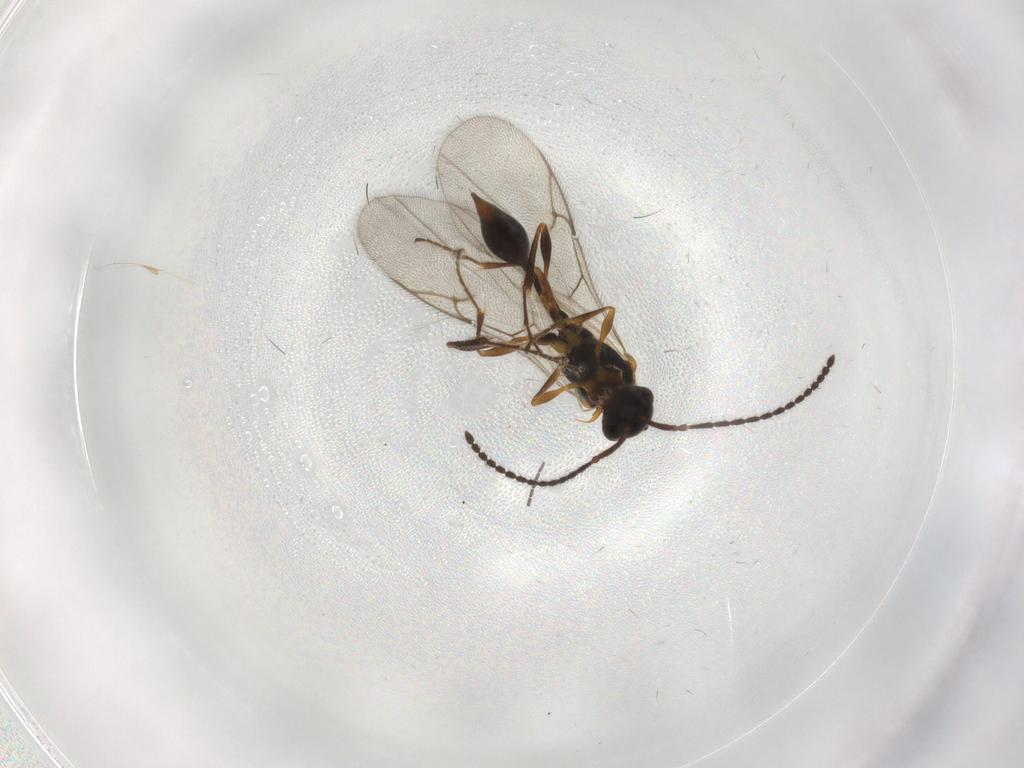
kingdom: Animalia
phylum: Arthropoda
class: Insecta
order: Hymenoptera
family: Diapriidae
